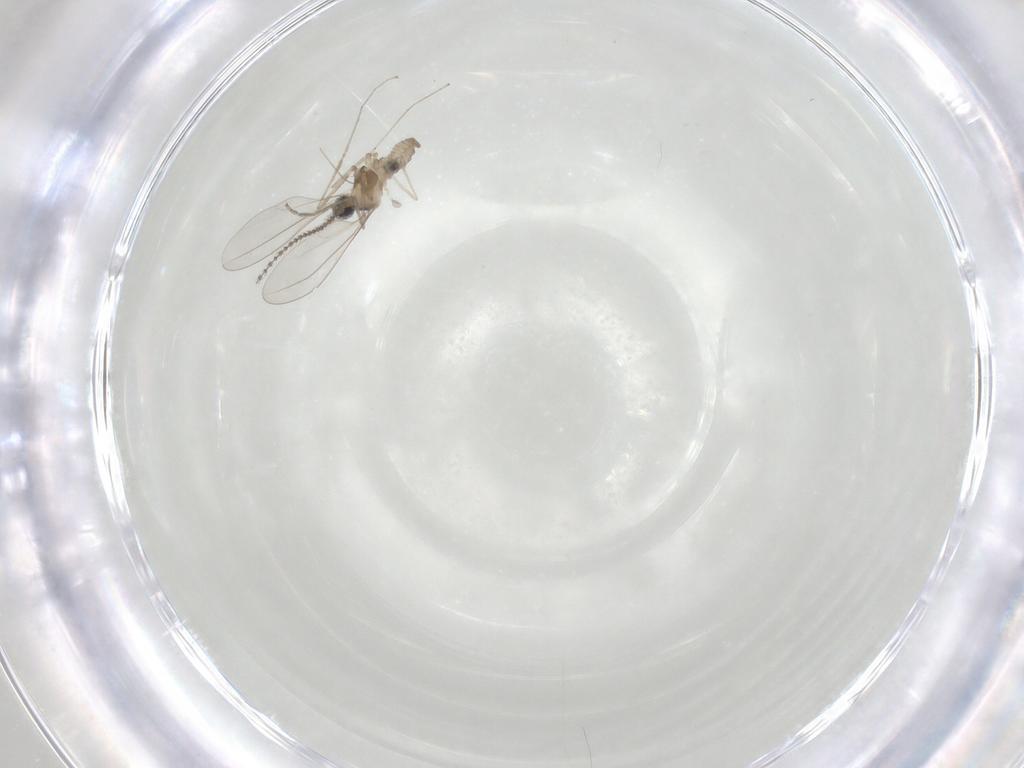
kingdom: Animalia
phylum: Arthropoda
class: Insecta
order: Diptera
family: Cecidomyiidae
